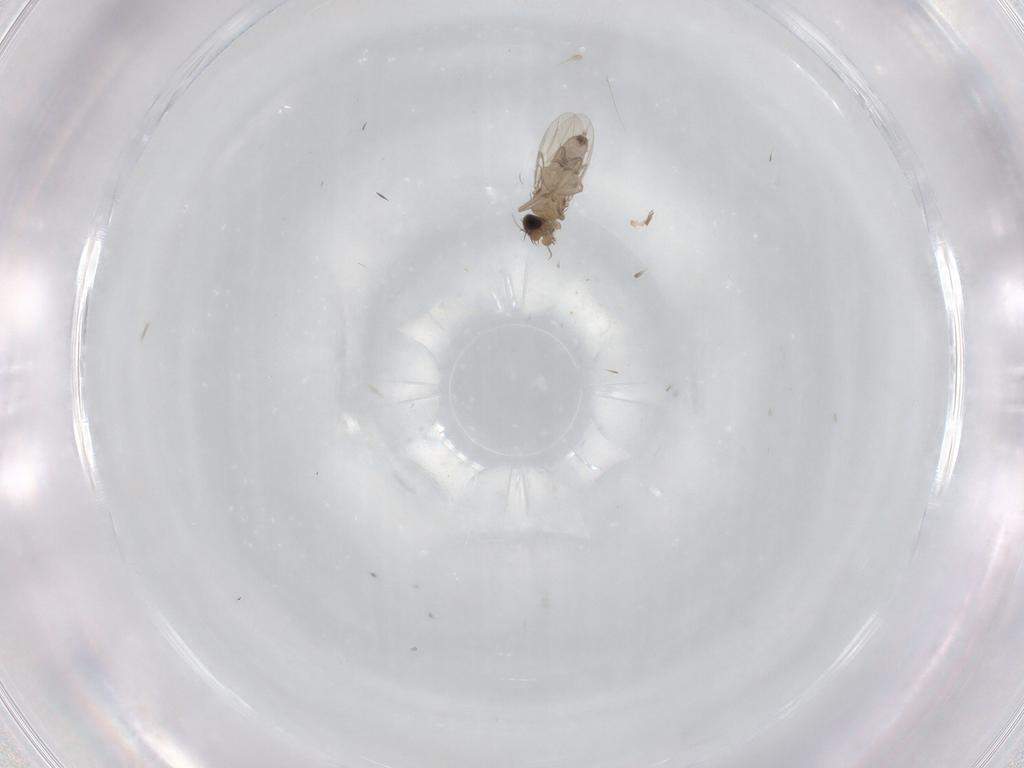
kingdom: Animalia
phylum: Arthropoda
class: Insecta
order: Diptera
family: Phoridae
